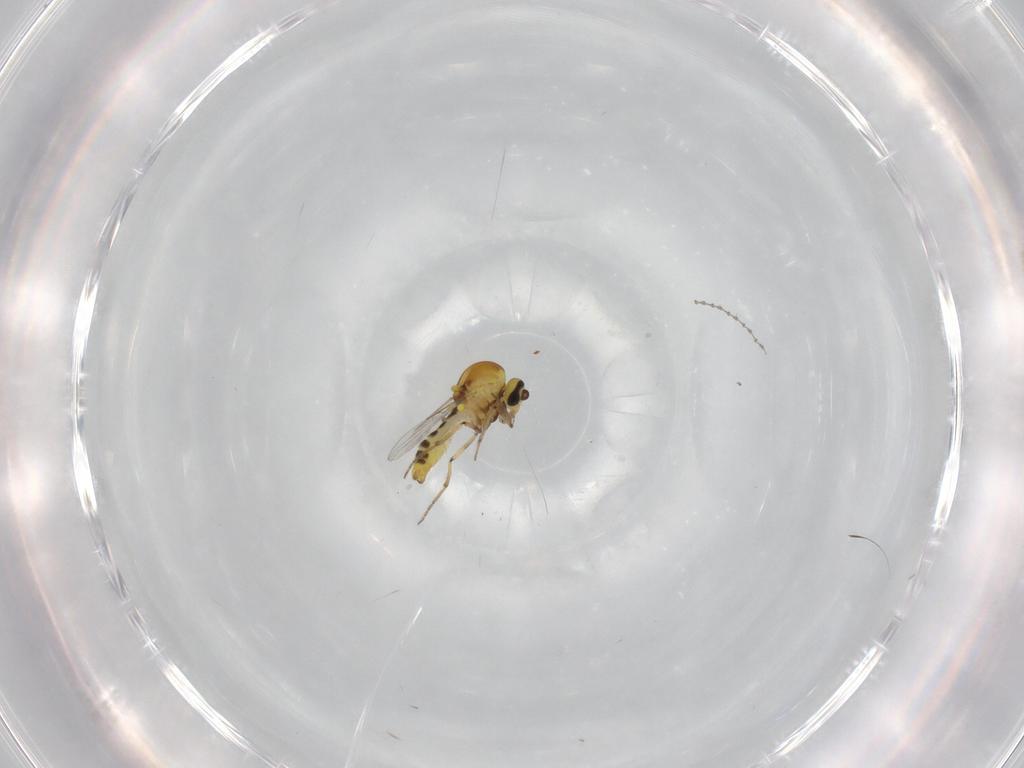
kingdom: Animalia
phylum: Arthropoda
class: Insecta
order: Diptera
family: Ceratopogonidae
